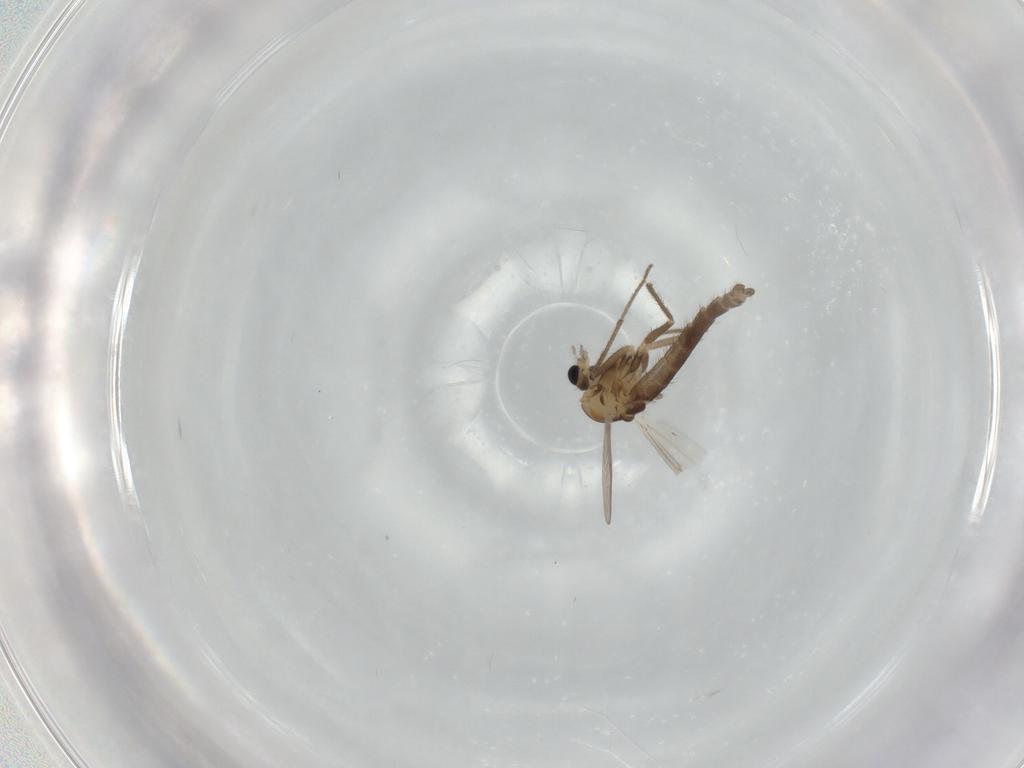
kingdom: Animalia
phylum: Arthropoda
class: Insecta
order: Diptera
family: Chironomidae
